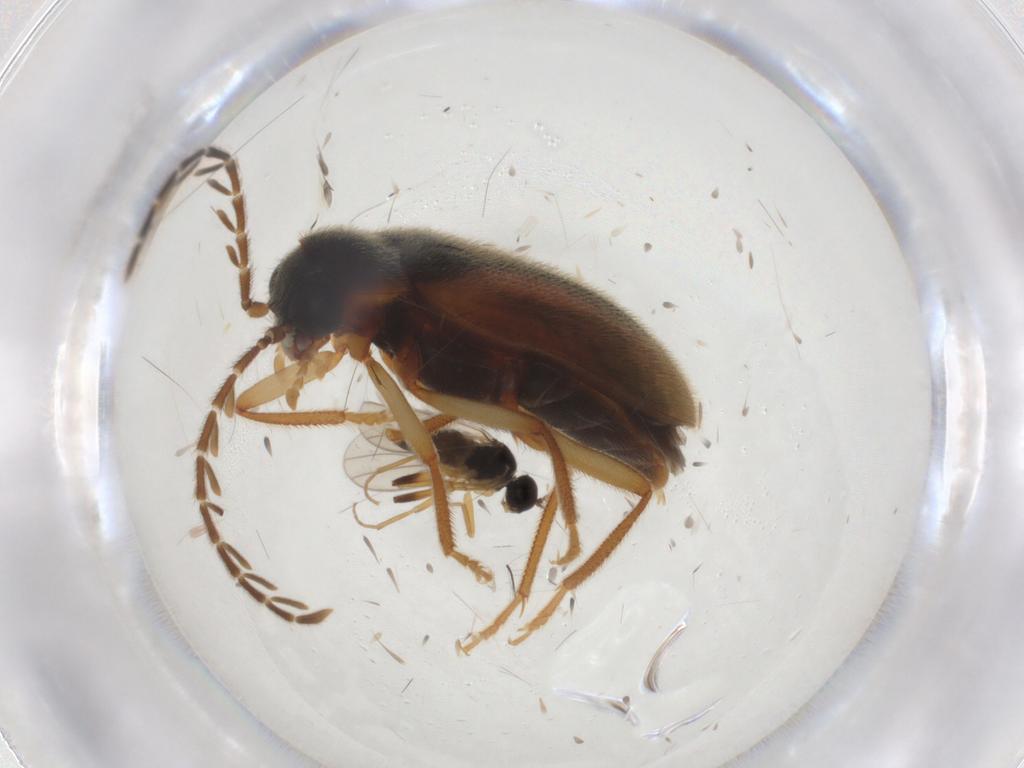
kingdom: Animalia
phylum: Arthropoda
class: Insecta
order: Diptera
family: Hybotidae
